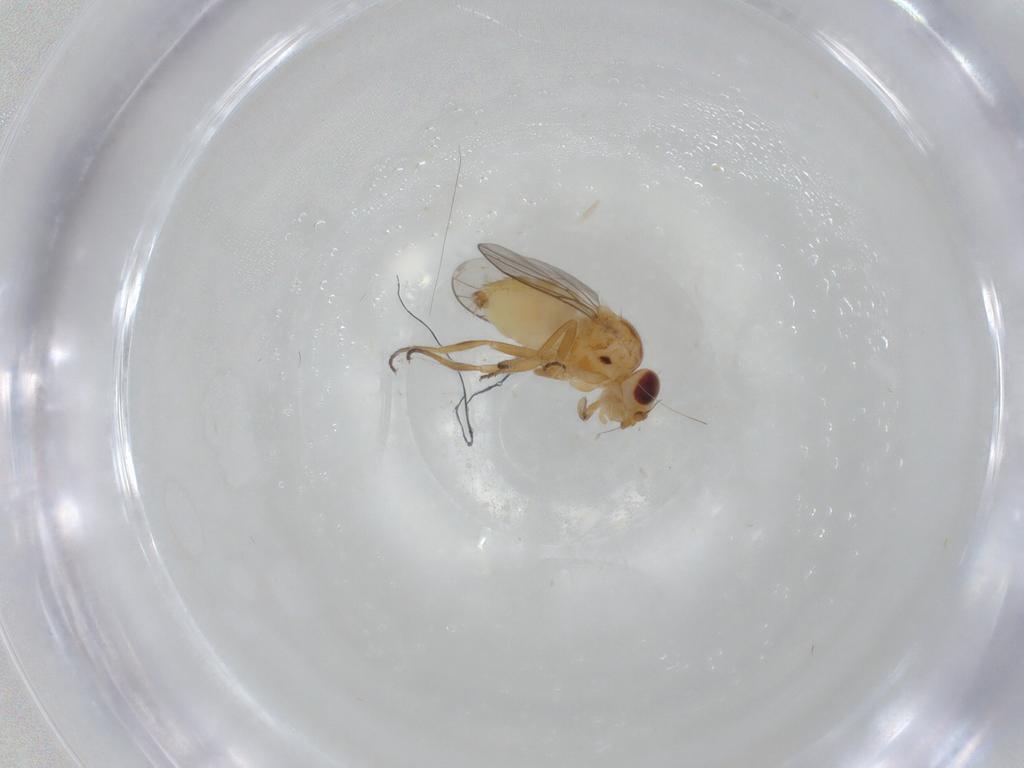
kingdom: Animalia
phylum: Arthropoda
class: Insecta
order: Diptera
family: Chloropidae
